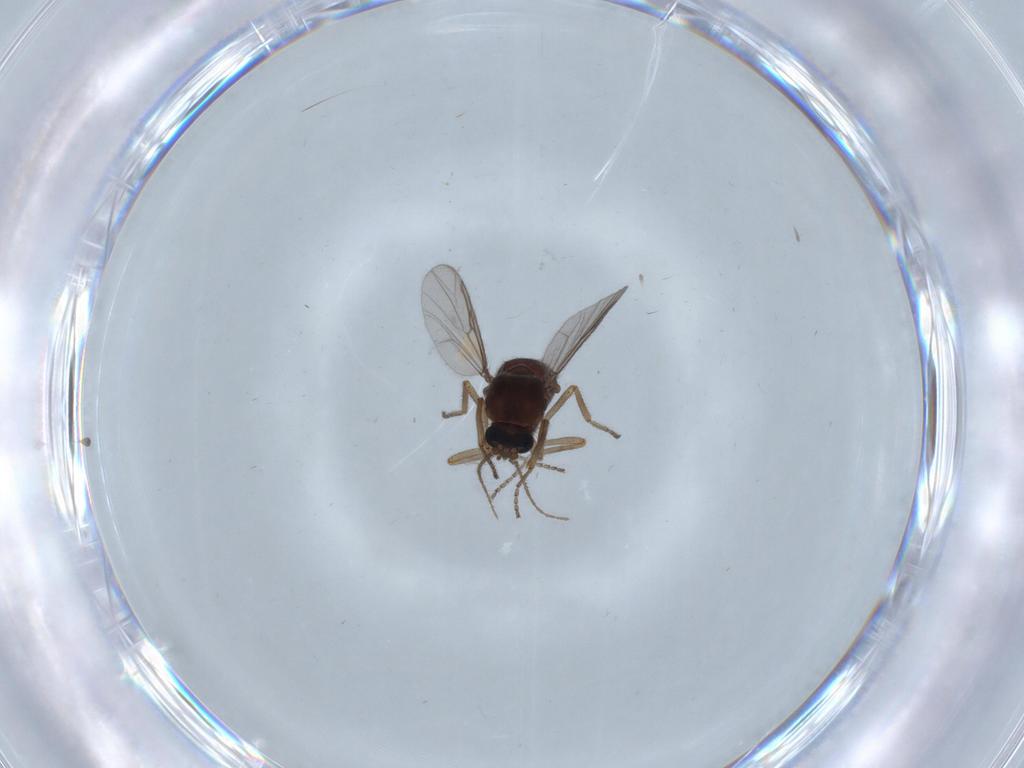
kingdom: Animalia
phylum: Arthropoda
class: Insecta
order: Diptera
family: Ceratopogonidae
